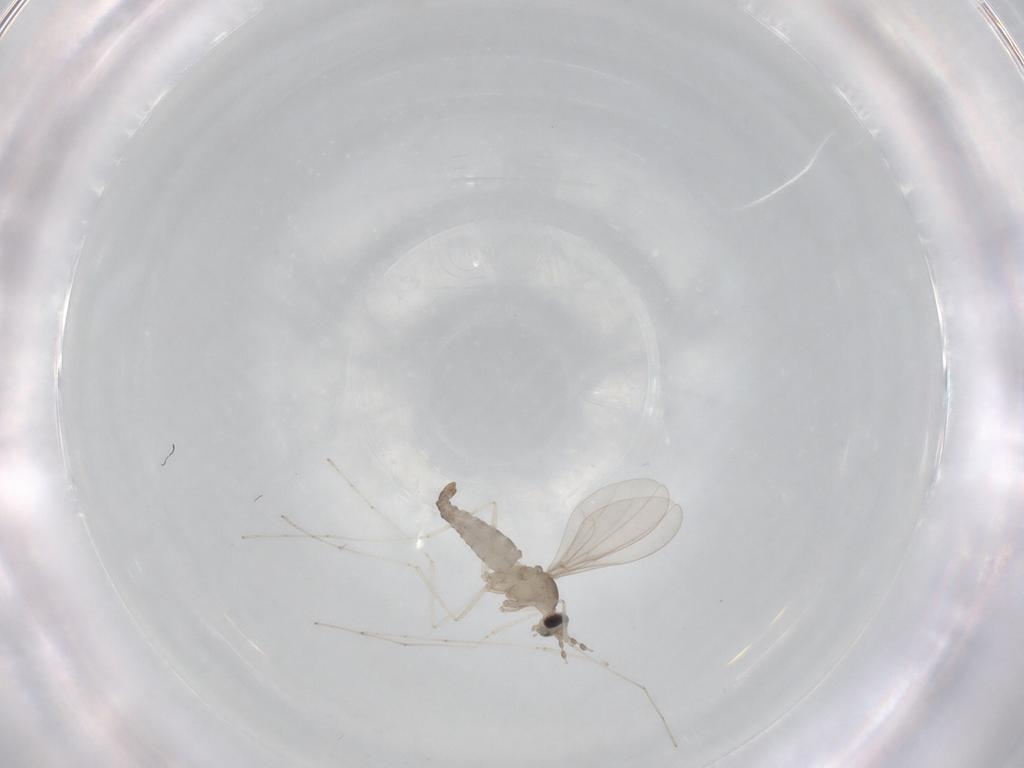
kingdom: Animalia
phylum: Arthropoda
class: Insecta
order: Diptera
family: Cecidomyiidae
